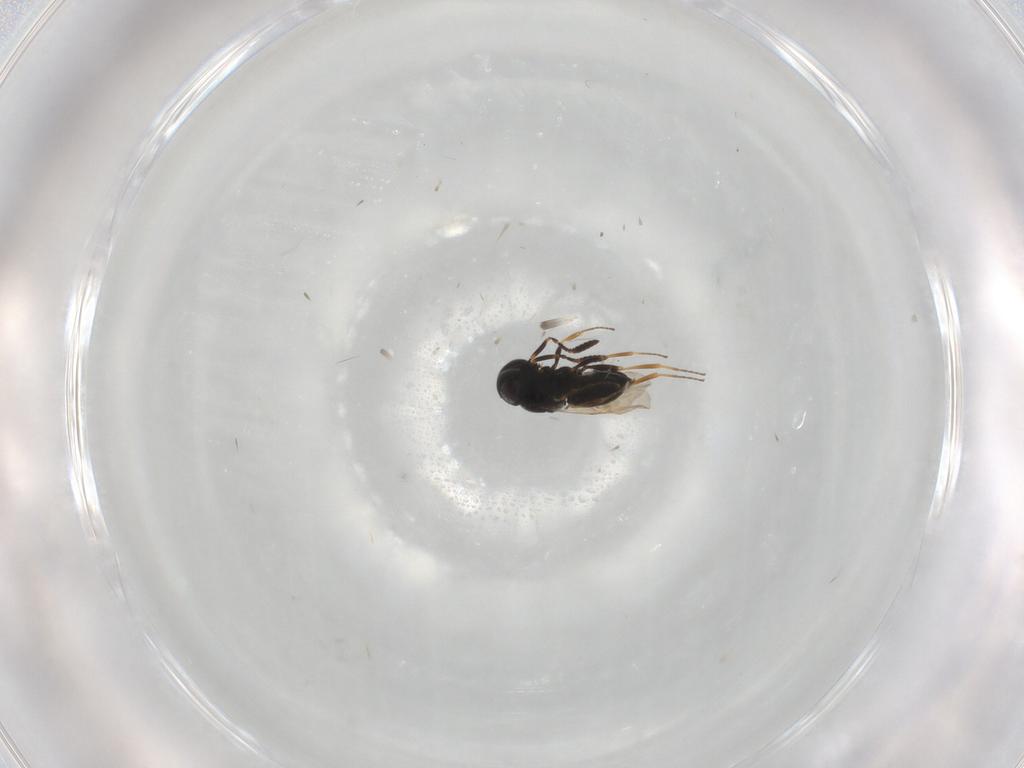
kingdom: Animalia
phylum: Arthropoda
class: Insecta
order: Hymenoptera
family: Scelionidae
